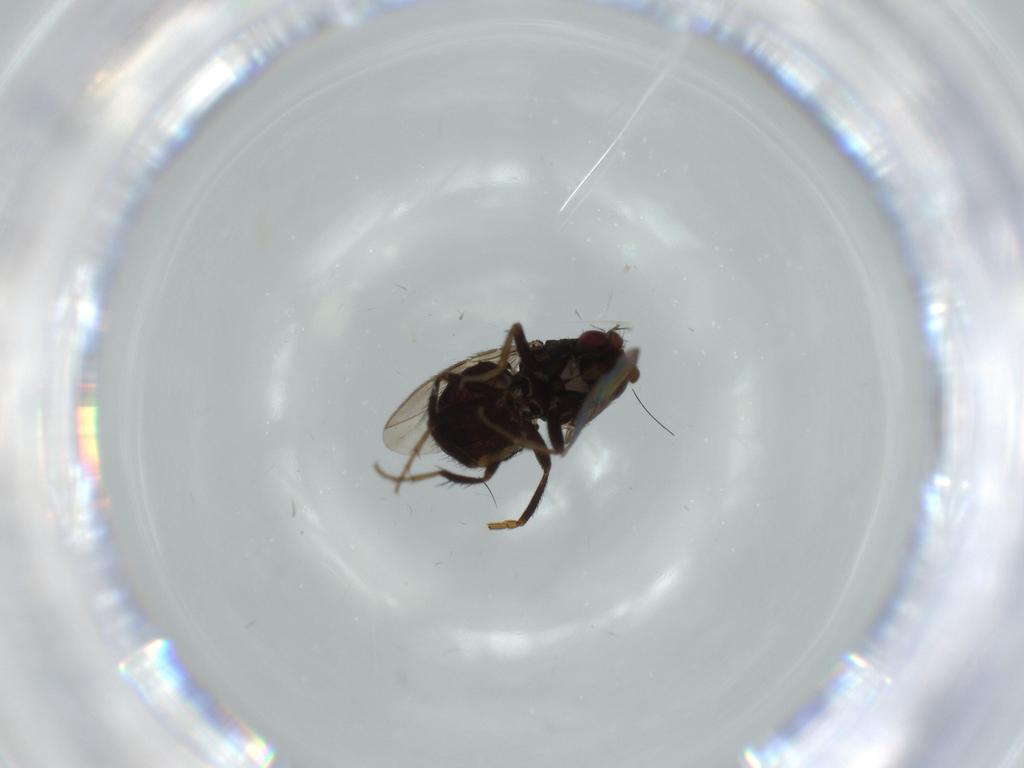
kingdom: Animalia
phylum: Arthropoda
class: Insecta
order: Diptera
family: Sphaeroceridae
